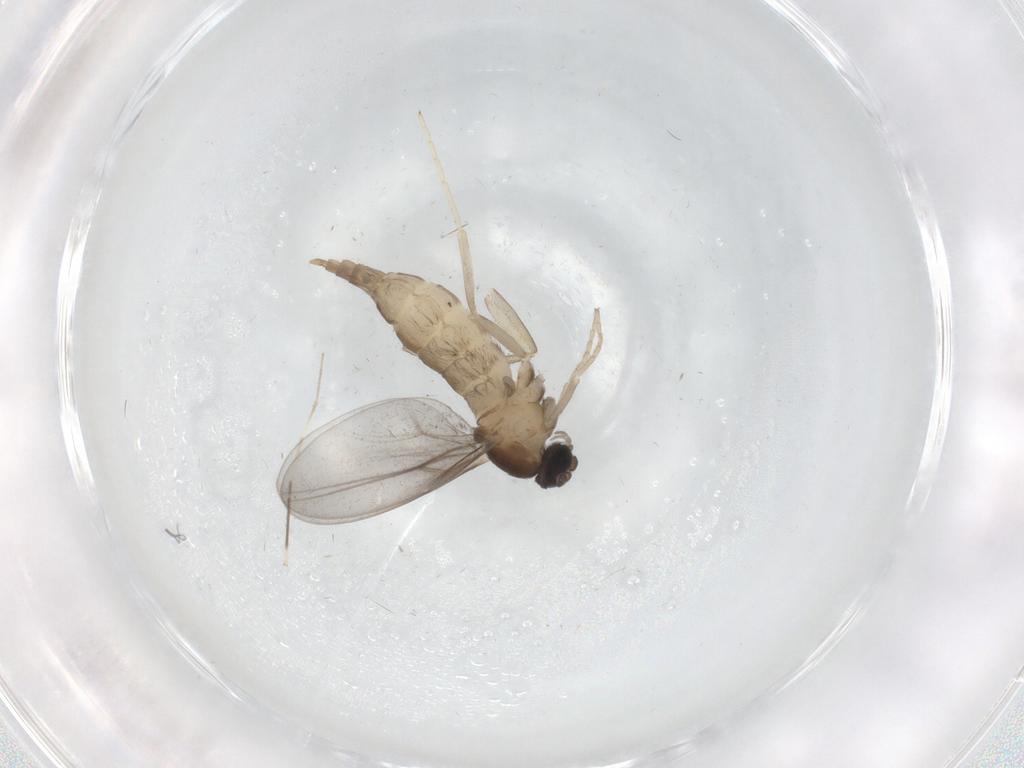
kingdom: Animalia
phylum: Arthropoda
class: Insecta
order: Diptera
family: Cecidomyiidae
